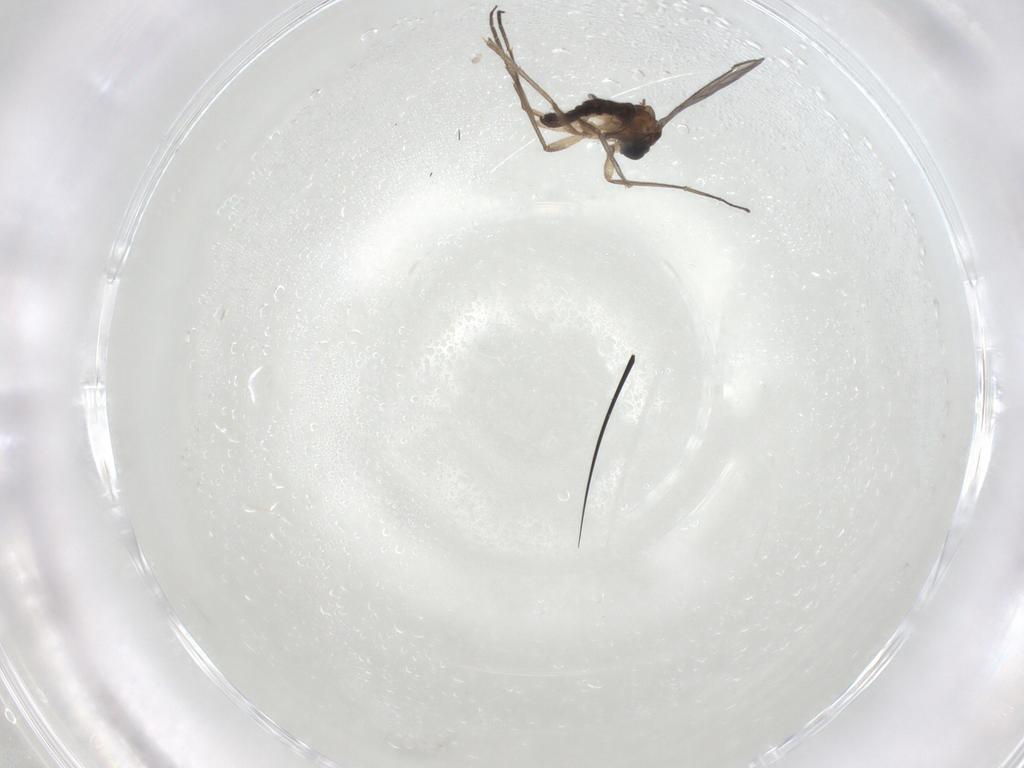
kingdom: Animalia
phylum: Arthropoda
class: Insecta
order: Diptera
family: Sciaridae
